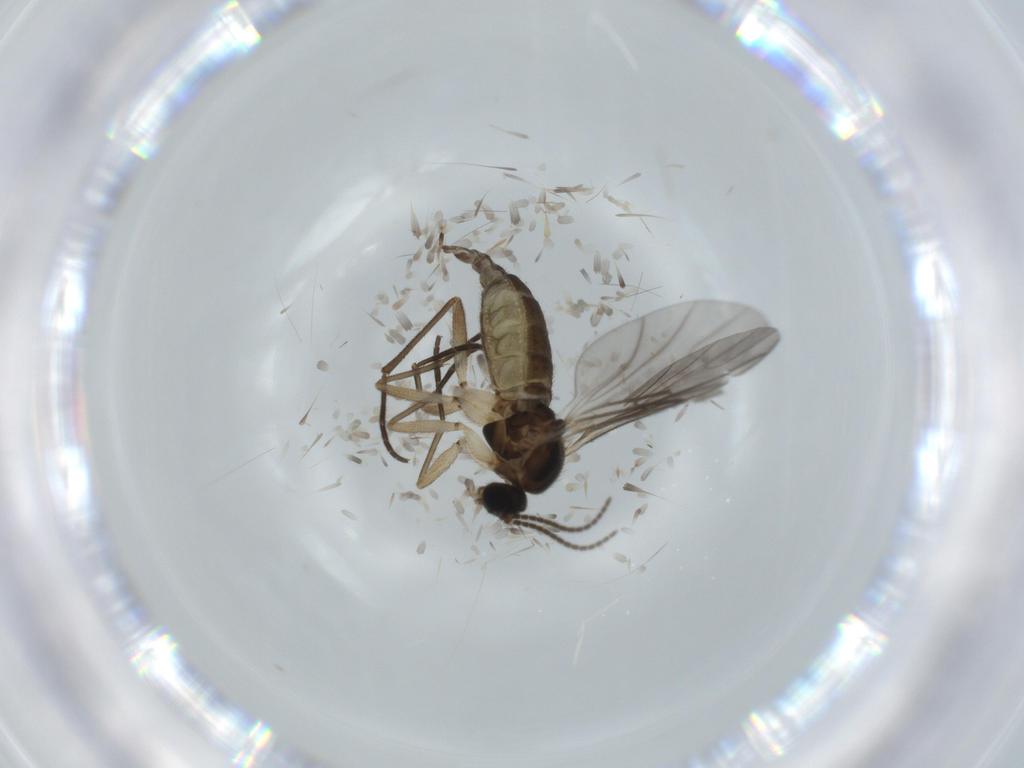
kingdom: Animalia
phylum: Arthropoda
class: Insecta
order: Diptera
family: Sciaridae
